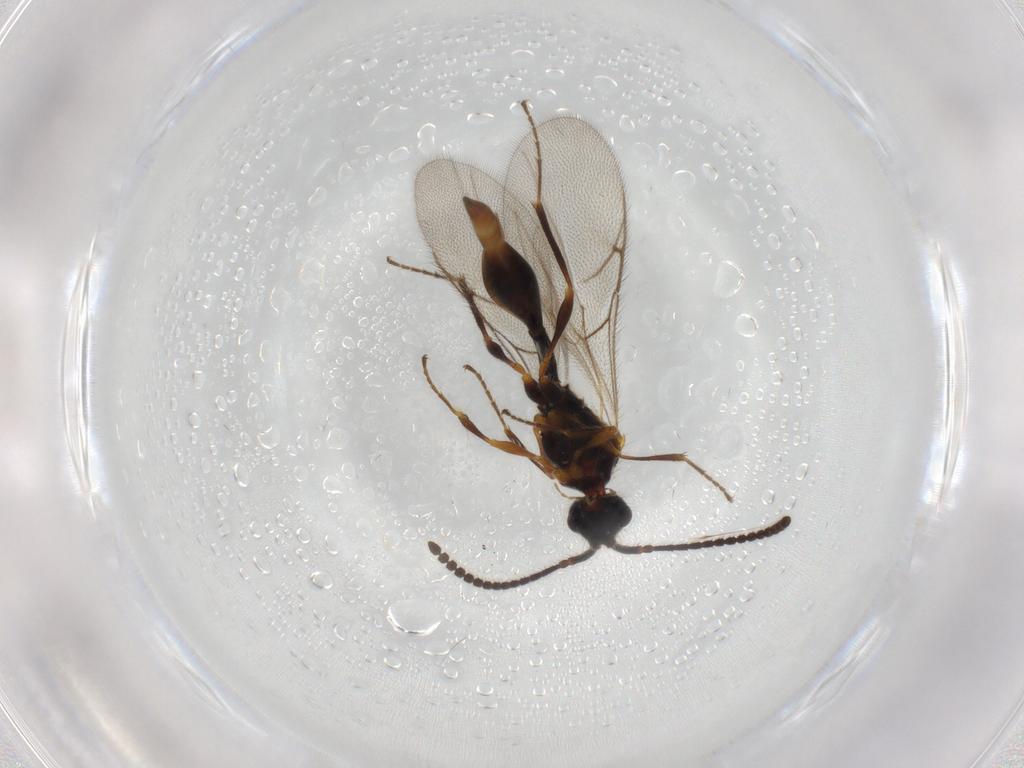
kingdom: Animalia
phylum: Arthropoda
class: Insecta
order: Hymenoptera
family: Diapriidae
